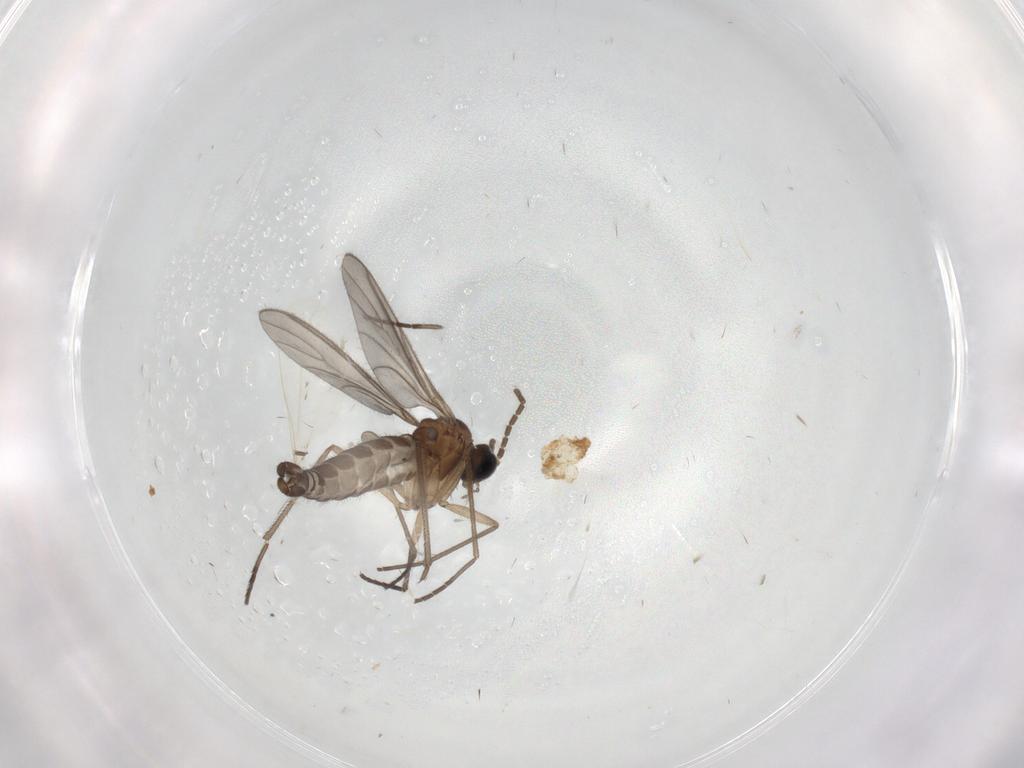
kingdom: Animalia
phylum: Arthropoda
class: Insecta
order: Diptera
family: Sciaridae
